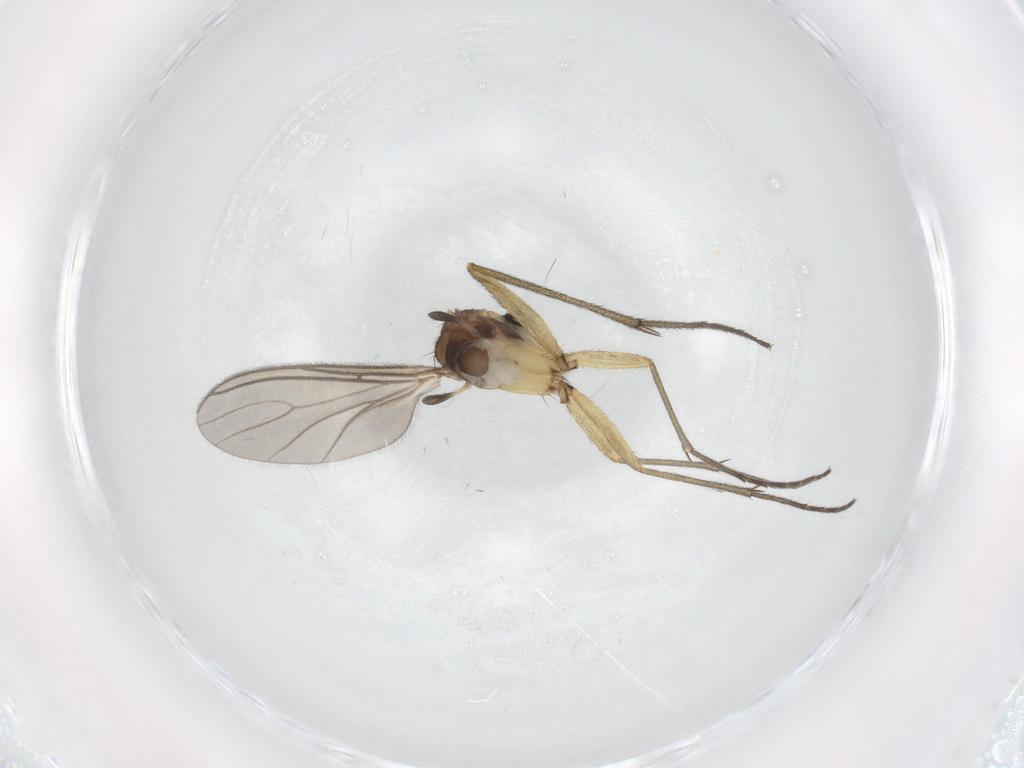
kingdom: Animalia
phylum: Arthropoda
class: Insecta
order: Diptera
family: Sciaridae
